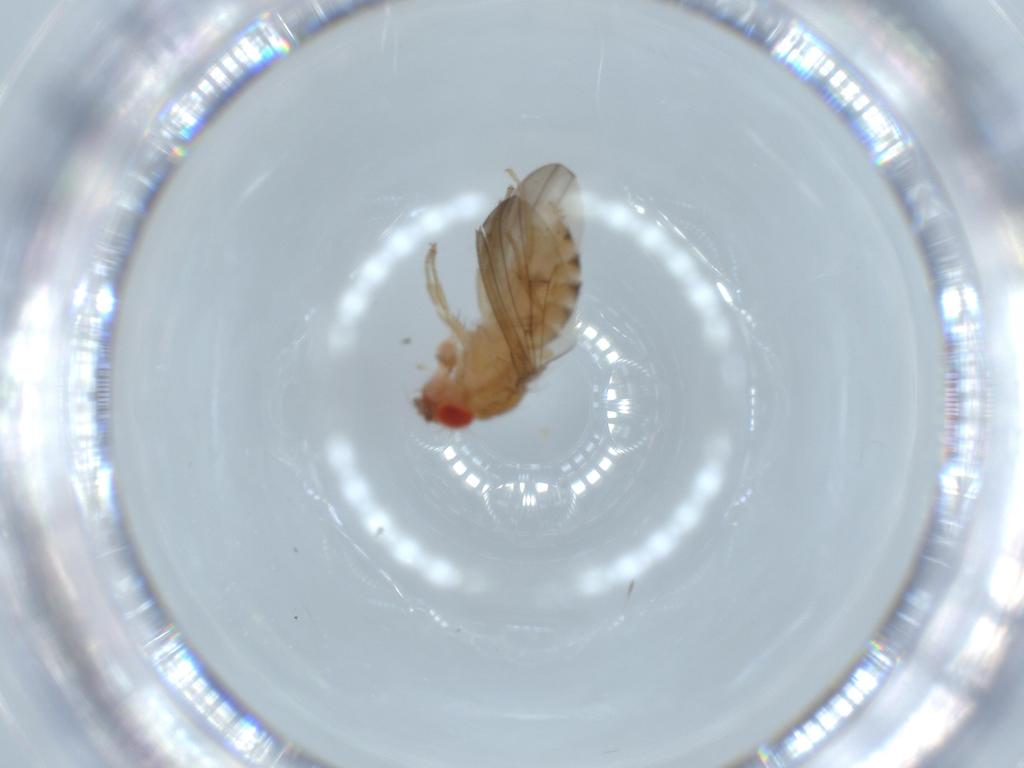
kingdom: Animalia
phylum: Arthropoda
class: Insecta
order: Diptera
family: Drosophilidae
